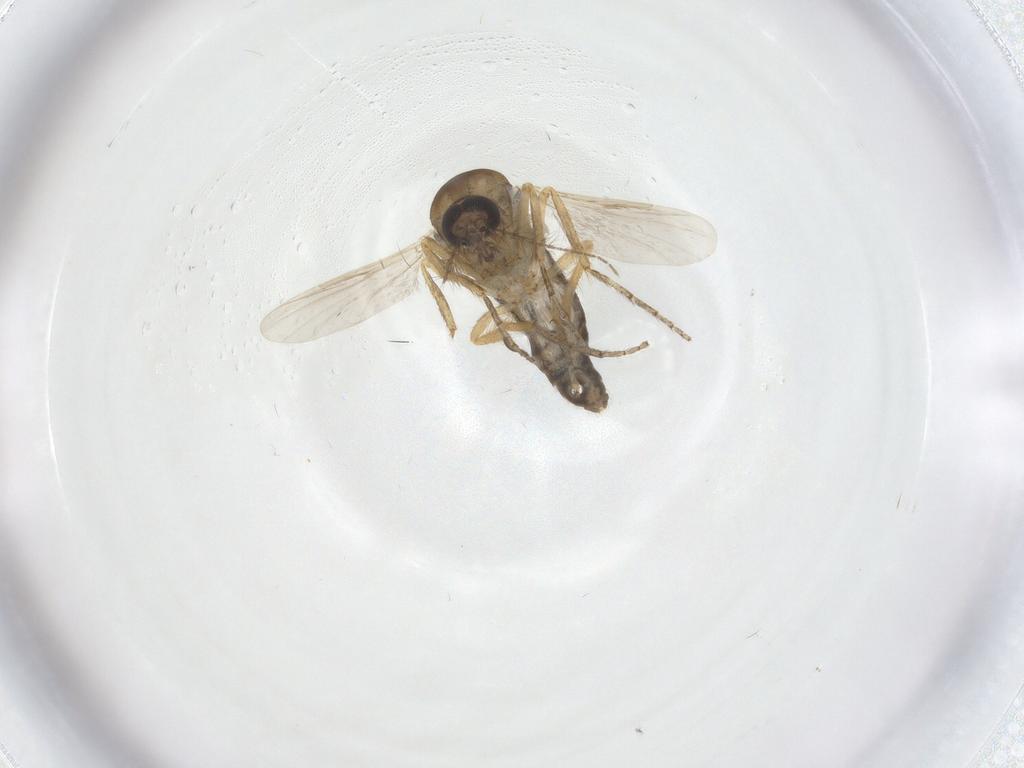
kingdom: Animalia
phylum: Arthropoda
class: Insecta
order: Diptera
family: Ceratopogonidae
